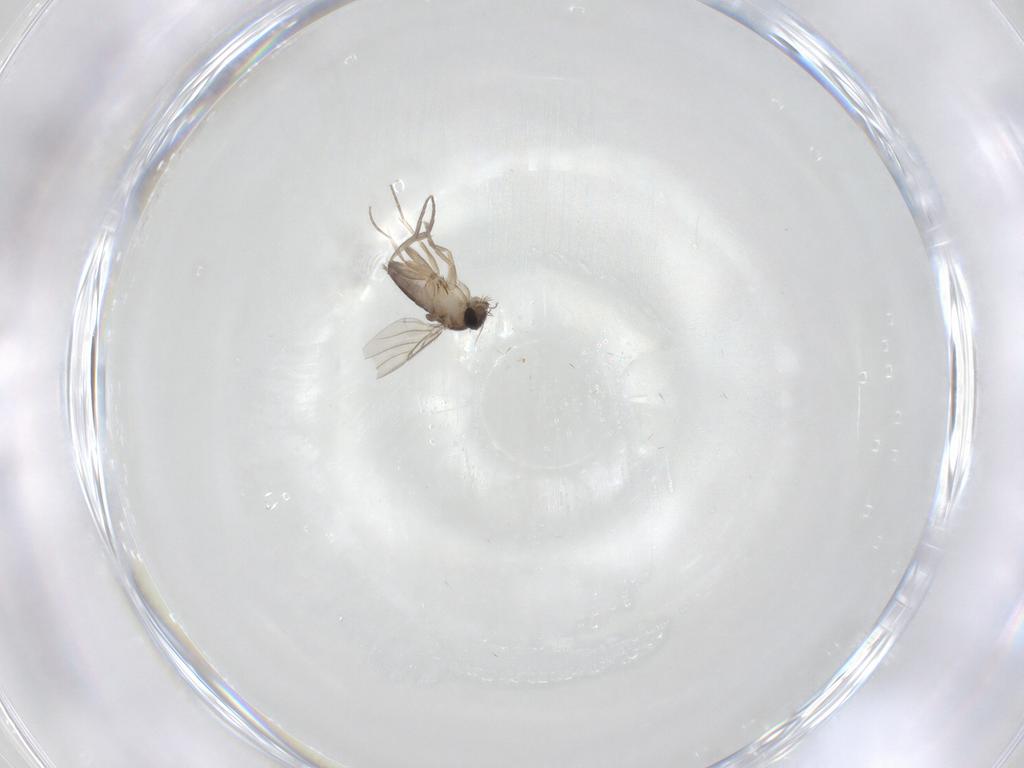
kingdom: Animalia
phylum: Arthropoda
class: Insecta
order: Diptera
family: Phoridae
